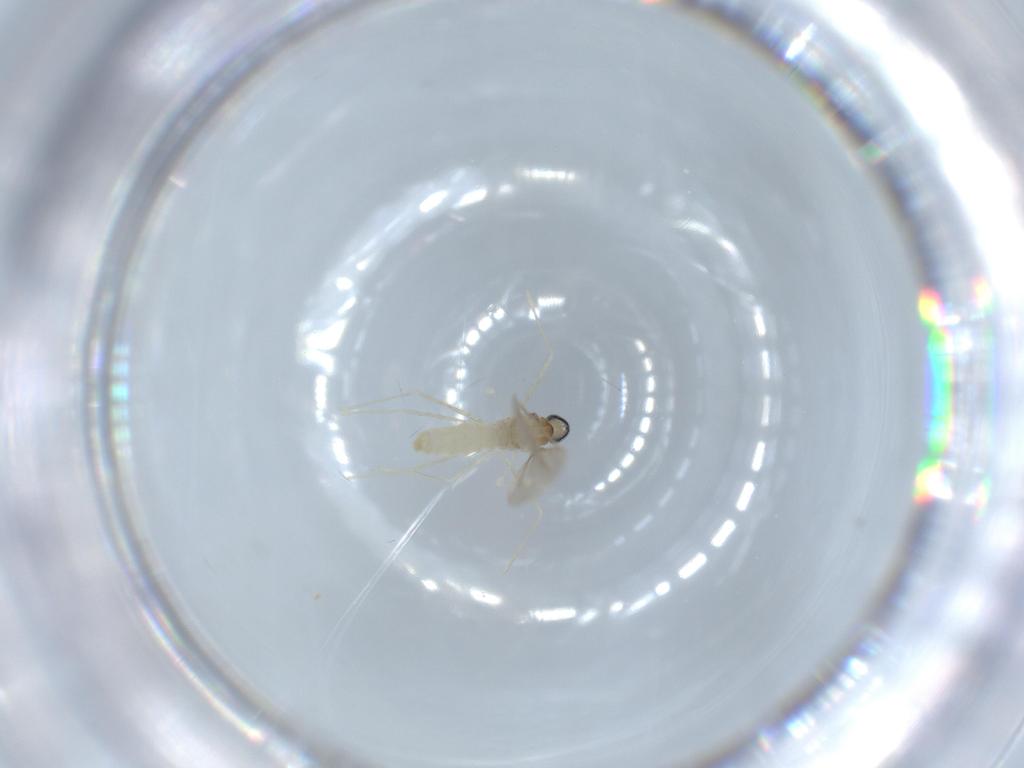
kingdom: Animalia
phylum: Arthropoda
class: Insecta
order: Diptera
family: Cecidomyiidae
